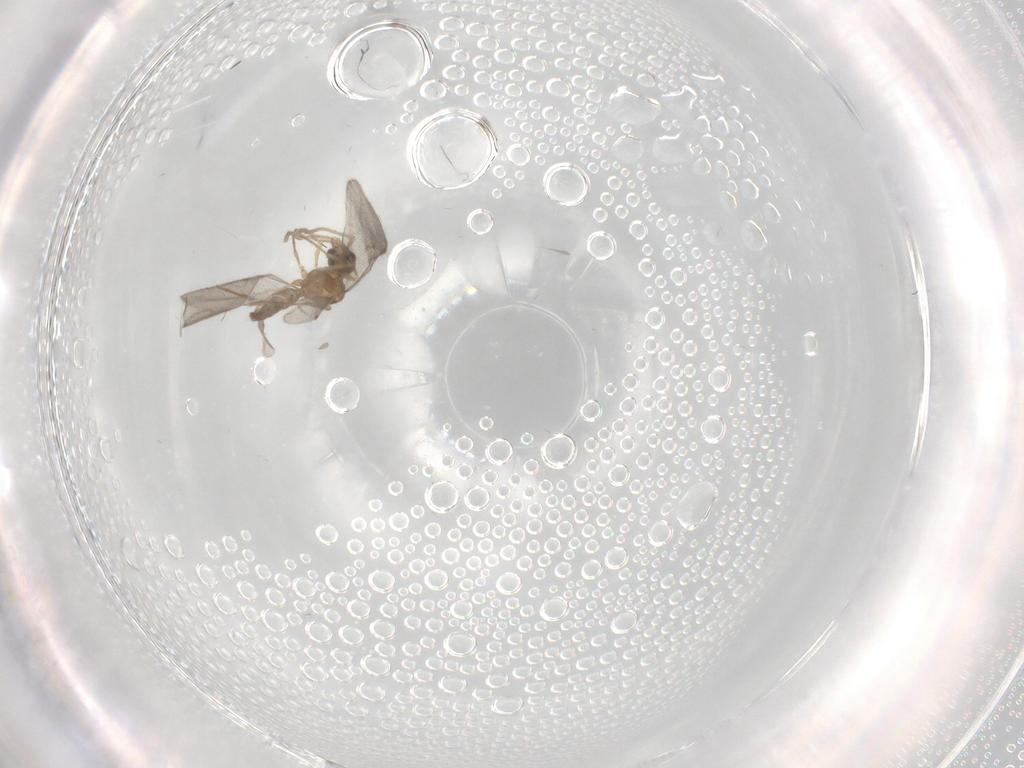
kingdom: Animalia
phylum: Arthropoda
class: Insecta
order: Hymenoptera
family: Formicidae
